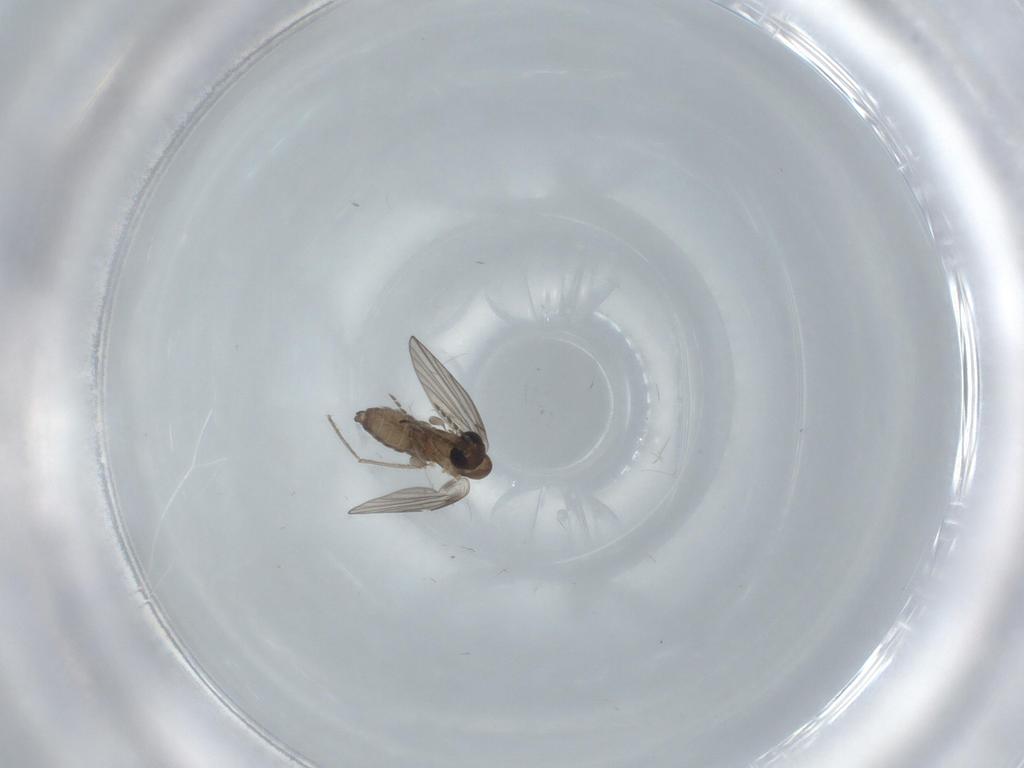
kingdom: Animalia
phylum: Arthropoda
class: Insecta
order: Diptera
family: Psychodidae
